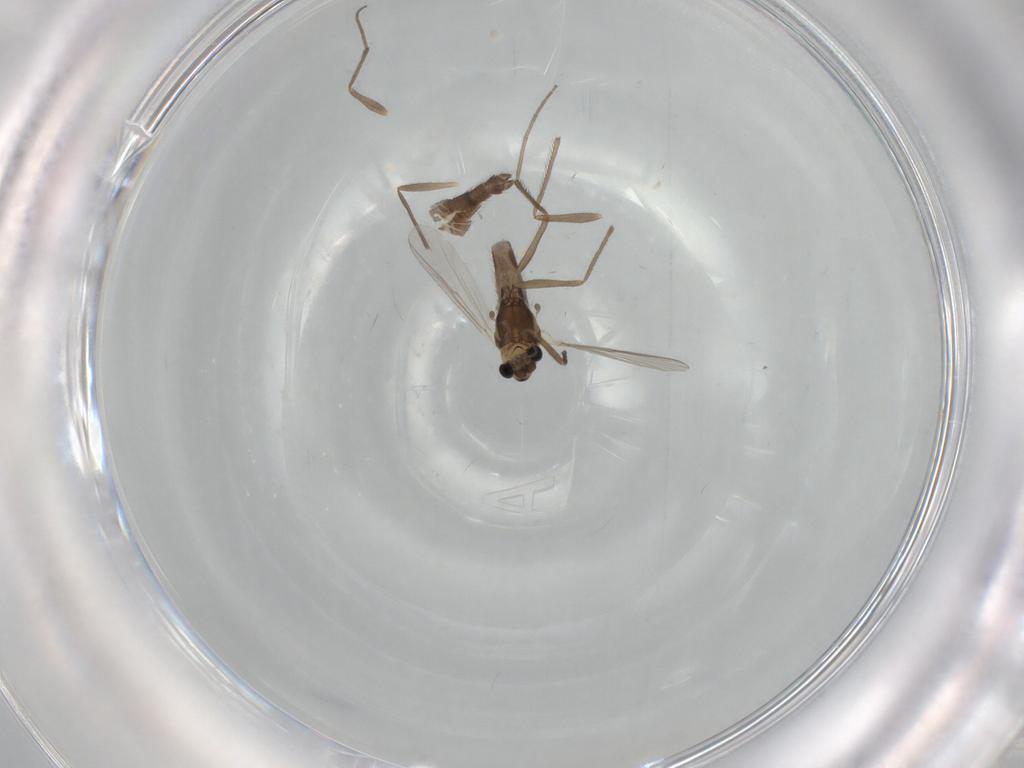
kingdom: Animalia
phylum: Arthropoda
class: Insecta
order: Diptera
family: Chironomidae
